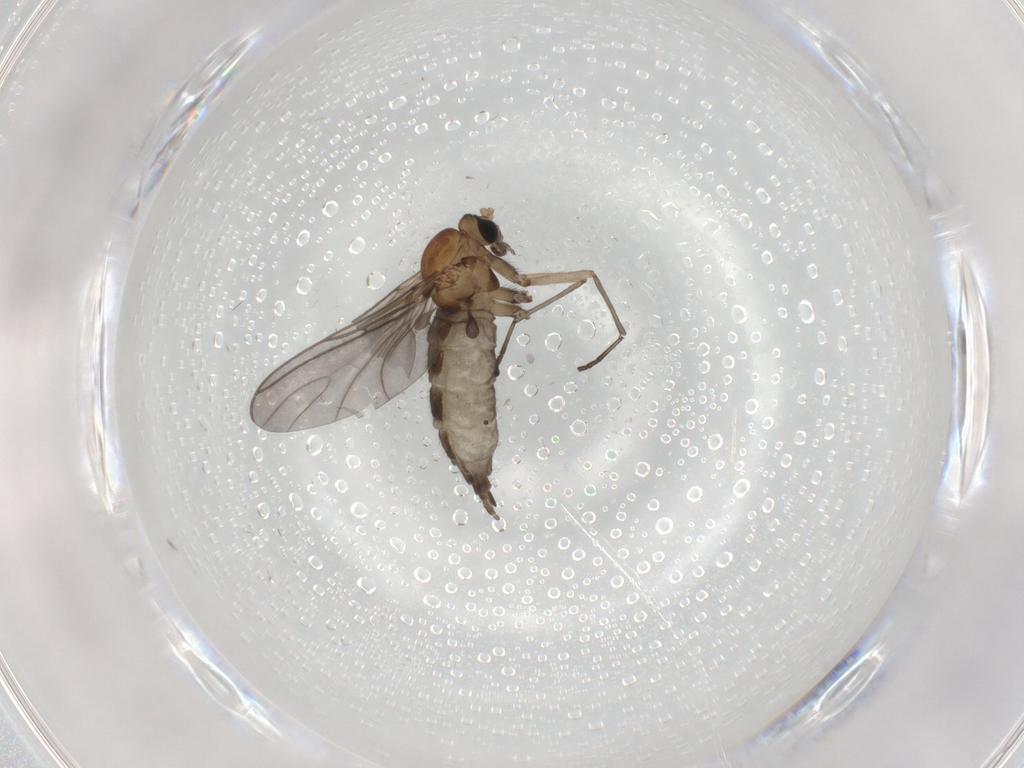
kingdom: Animalia
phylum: Arthropoda
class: Insecta
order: Diptera
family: Sciaridae
